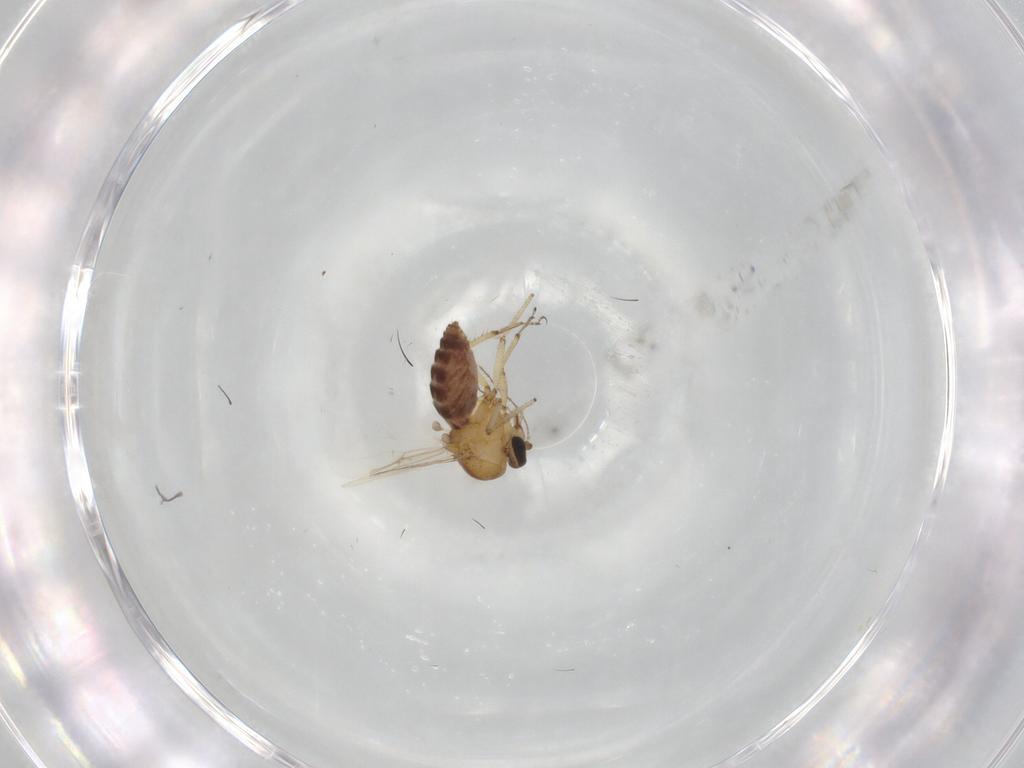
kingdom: Animalia
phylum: Arthropoda
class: Insecta
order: Diptera
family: Ceratopogonidae
